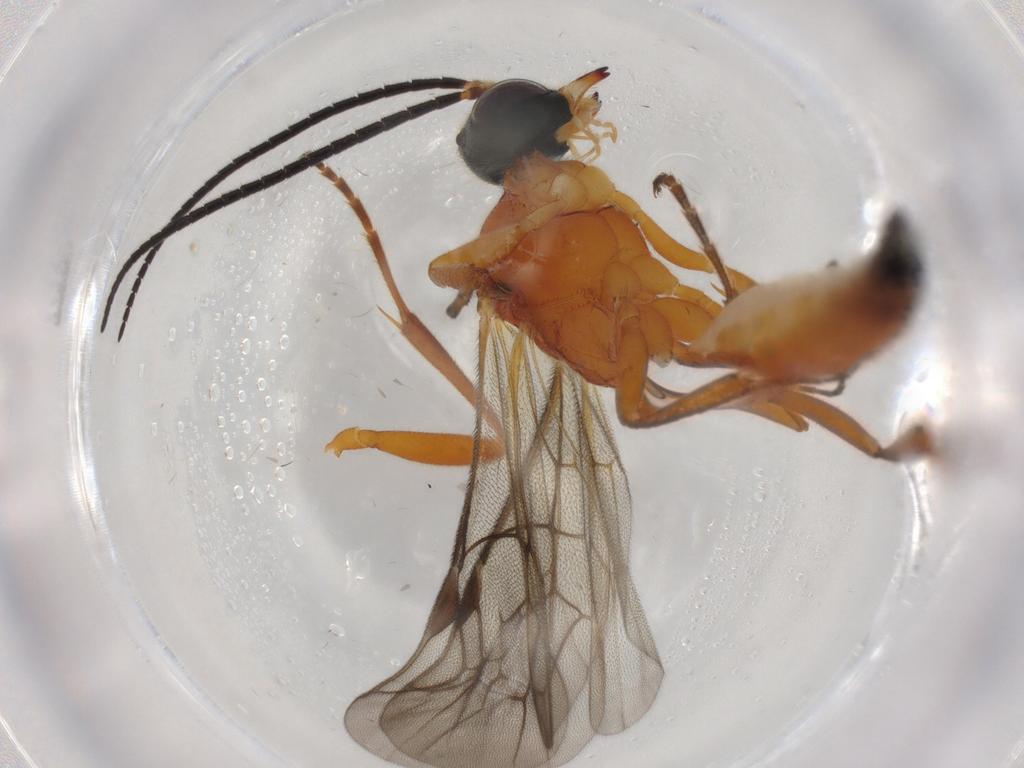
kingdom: Animalia
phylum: Arthropoda
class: Insecta
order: Hymenoptera
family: Ichneumonidae
